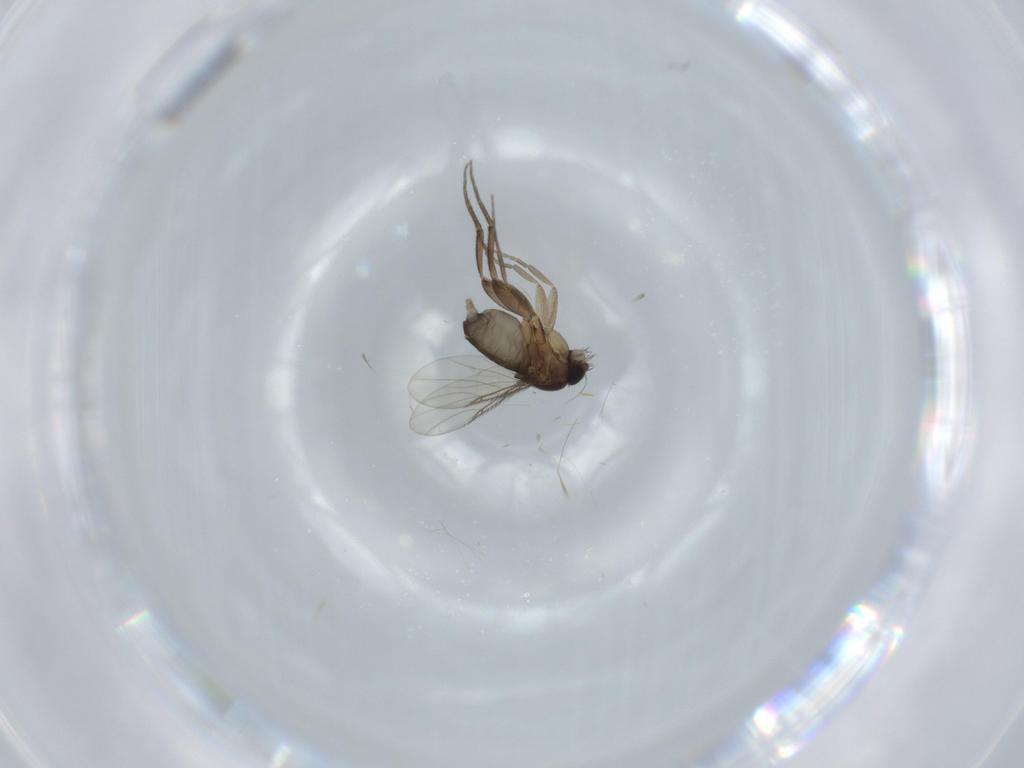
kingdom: Animalia
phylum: Arthropoda
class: Insecta
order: Diptera
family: Phoridae
